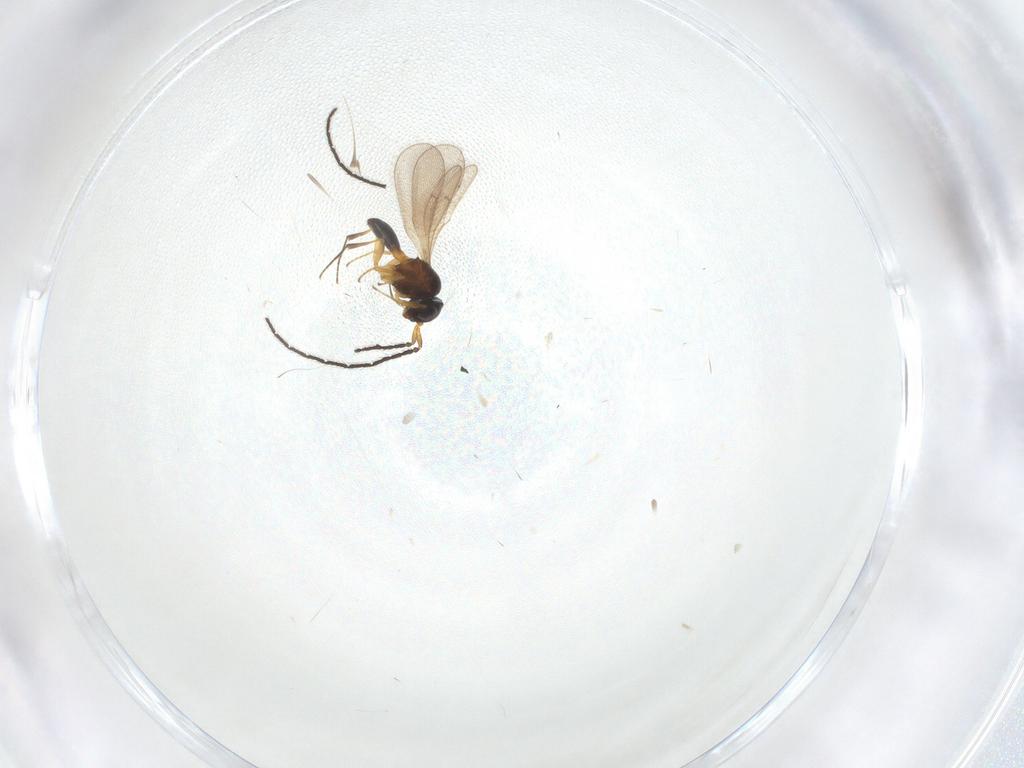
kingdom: Animalia
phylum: Arthropoda
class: Insecta
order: Hymenoptera
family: Scelionidae
